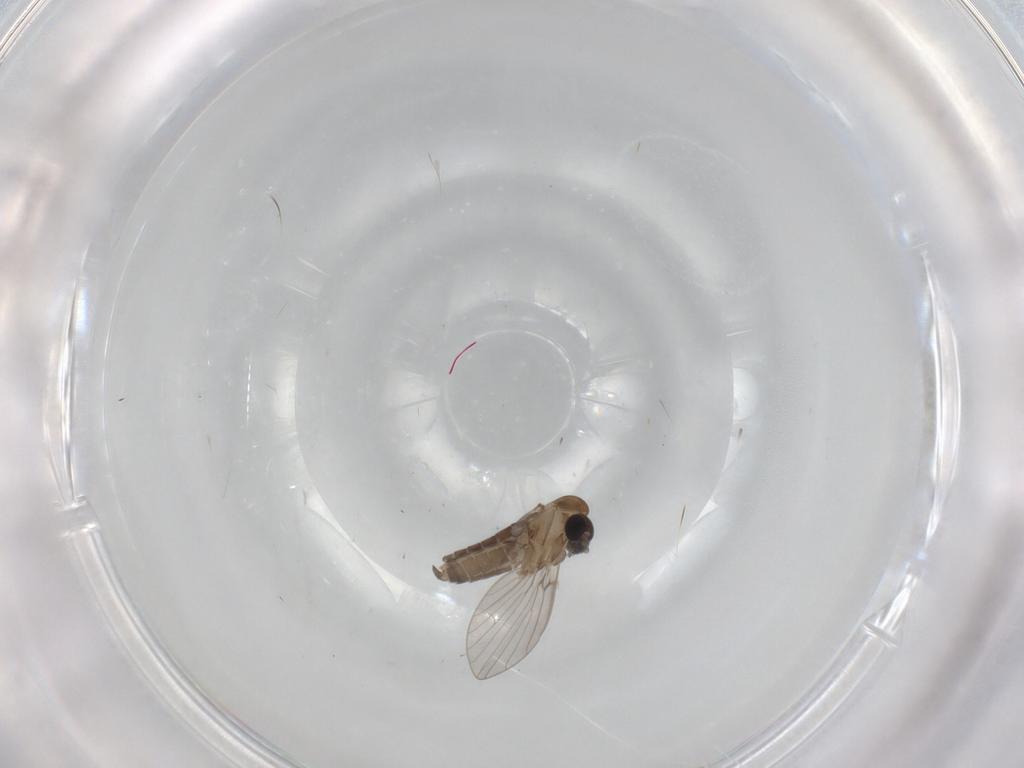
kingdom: Animalia
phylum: Arthropoda
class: Insecta
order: Diptera
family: Psychodidae
